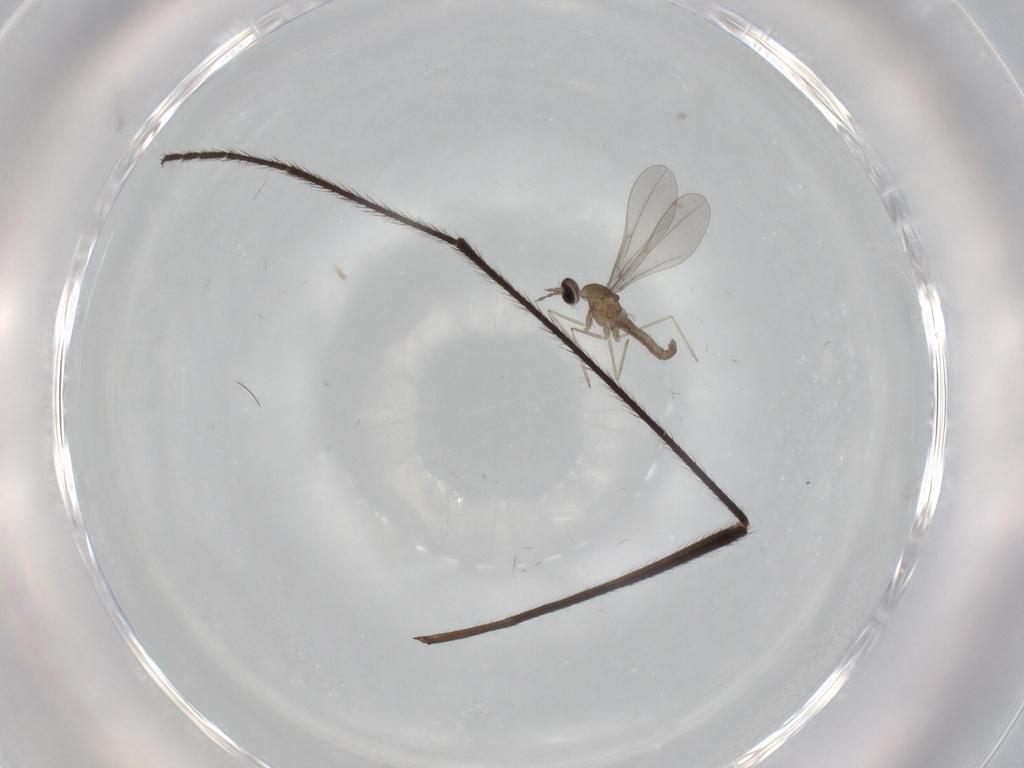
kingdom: Animalia
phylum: Arthropoda
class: Insecta
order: Diptera
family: Cecidomyiidae
